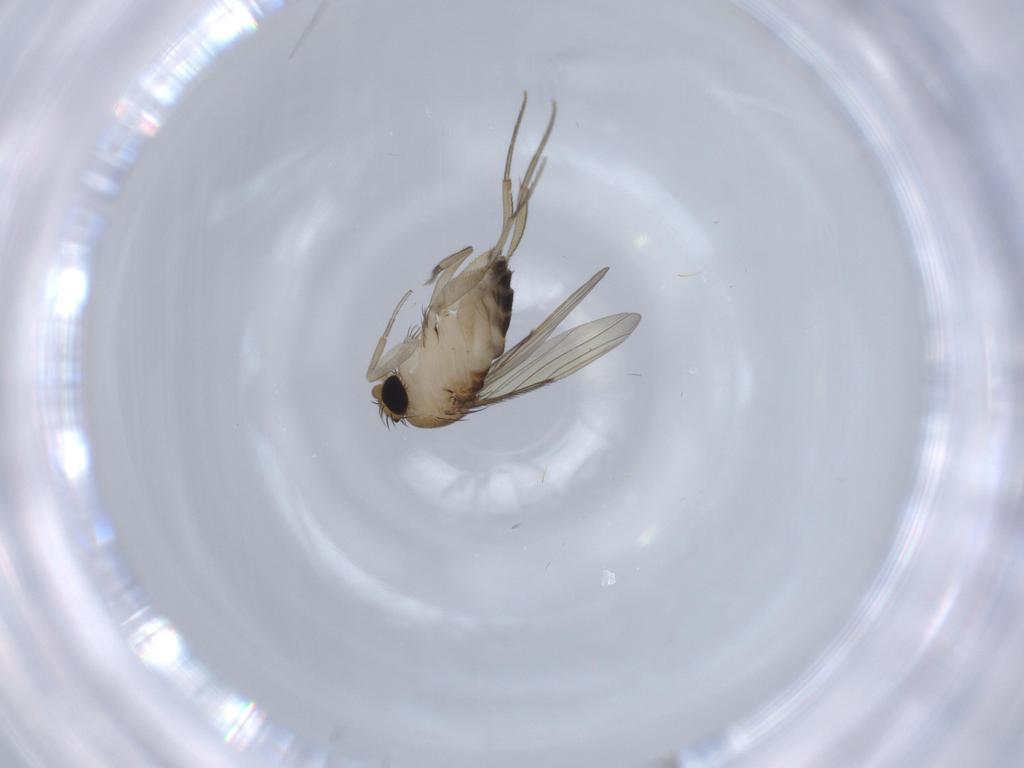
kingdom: Animalia
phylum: Arthropoda
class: Insecta
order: Diptera
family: Phoridae
